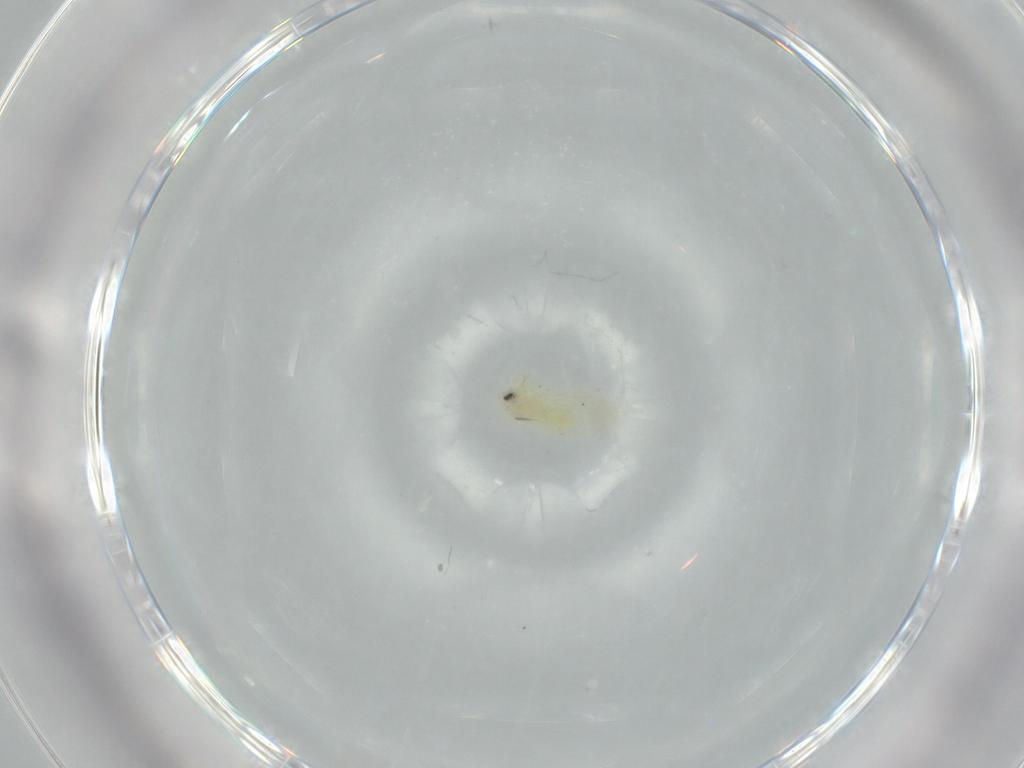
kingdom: Animalia
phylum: Arthropoda
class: Insecta
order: Hemiptera
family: Aleyrodidae
